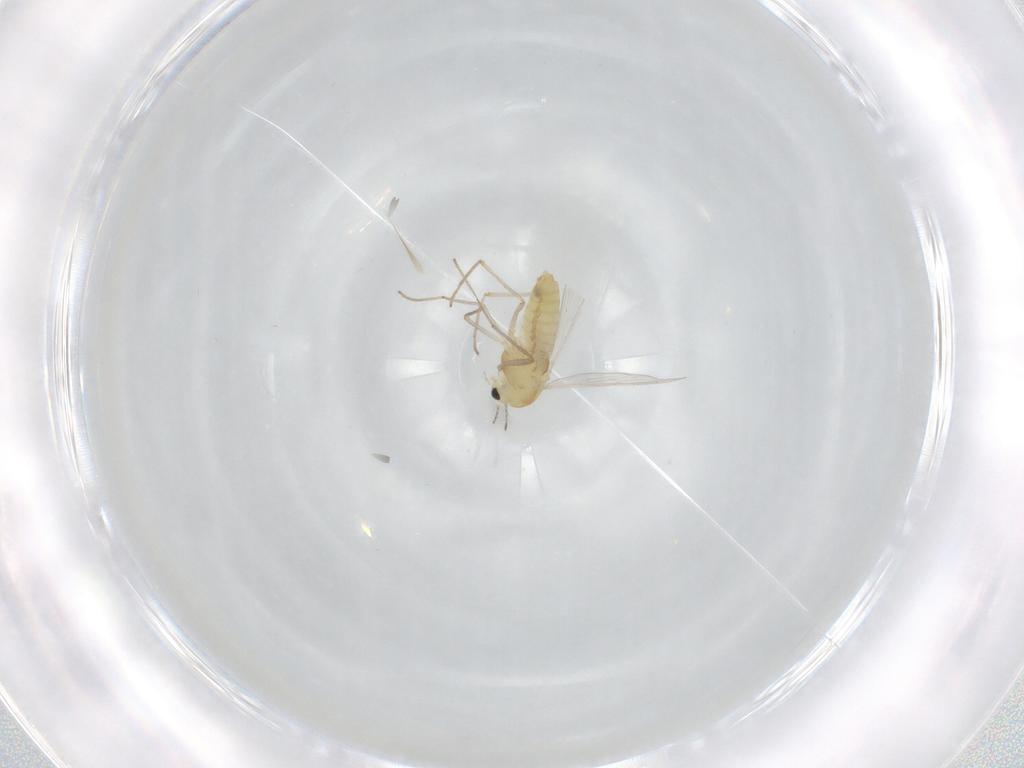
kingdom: Animalia
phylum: Arthropoda
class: Insecta
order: Diptera
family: Chironomidae
